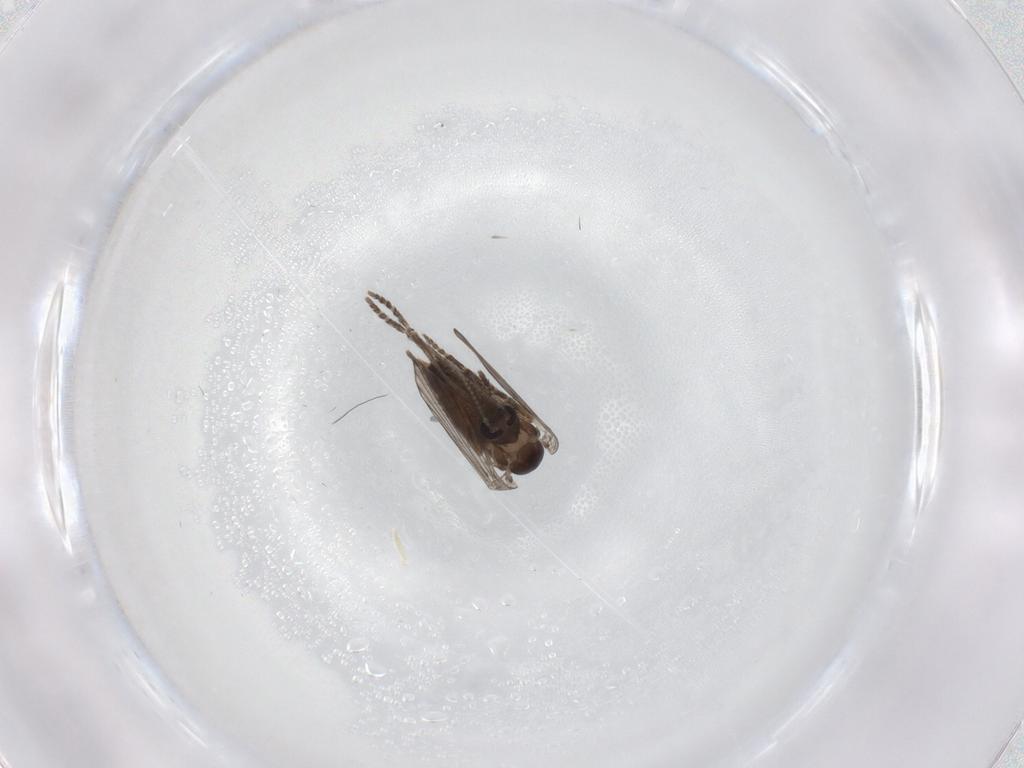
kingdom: Animalia
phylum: Arthropoda
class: Insecta
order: Diptera
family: Psychodidae
